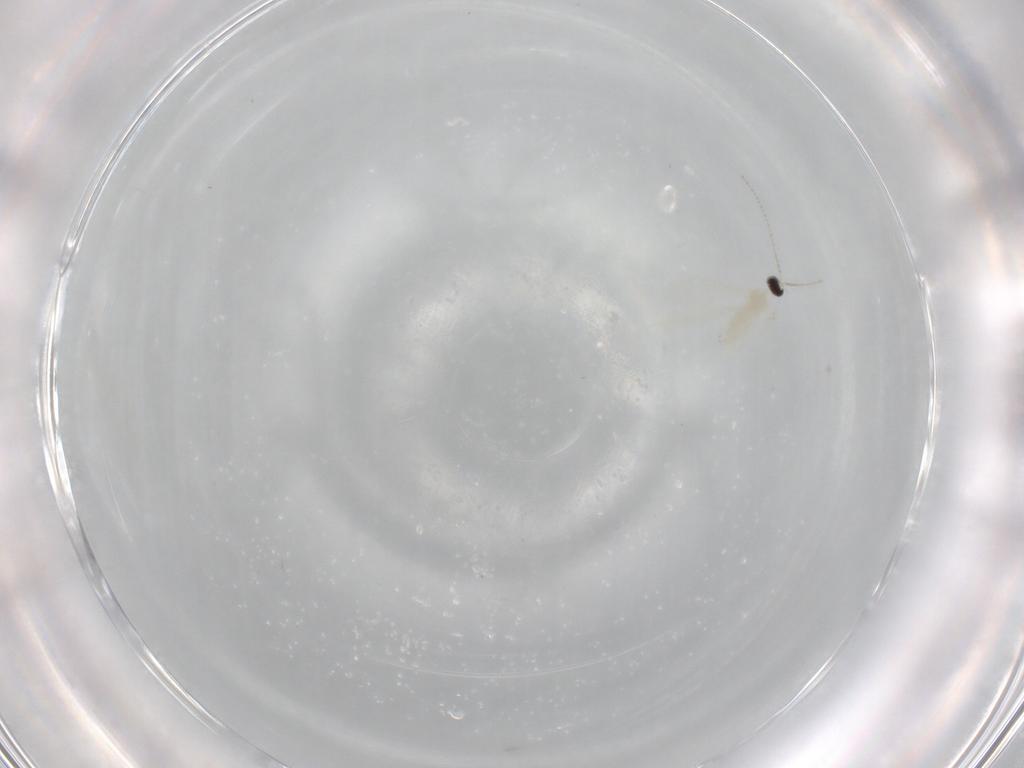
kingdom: Animalia
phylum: Arthropoda
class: Insecta
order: Diptera
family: Cecidomyiidae
